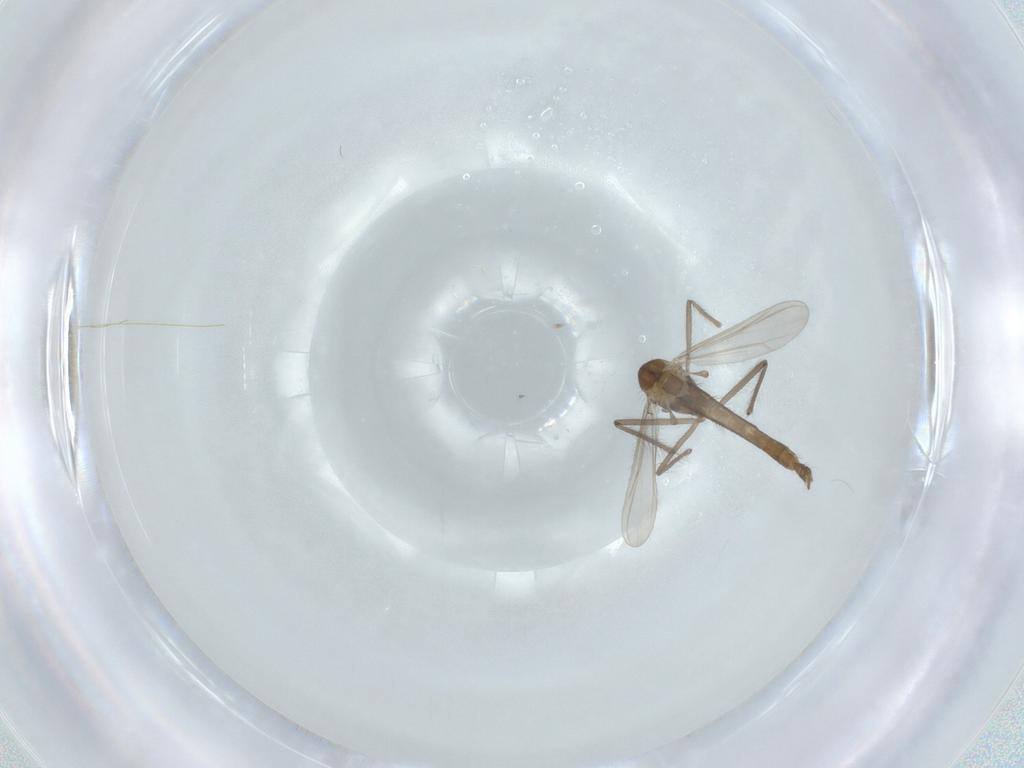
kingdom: Animalia
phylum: Arthropoda
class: Insecta
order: Diptera
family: Chironomidae
